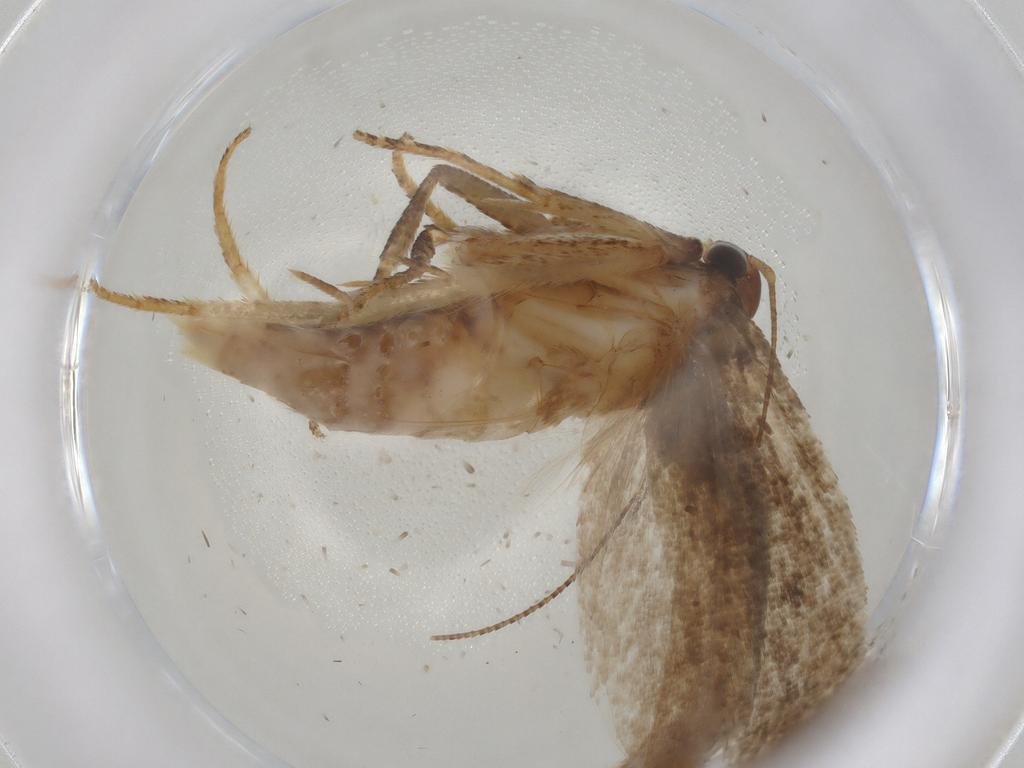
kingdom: Animalia
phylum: Arthropoda
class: Insecta
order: Lepidoptera
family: Gelechiidae
